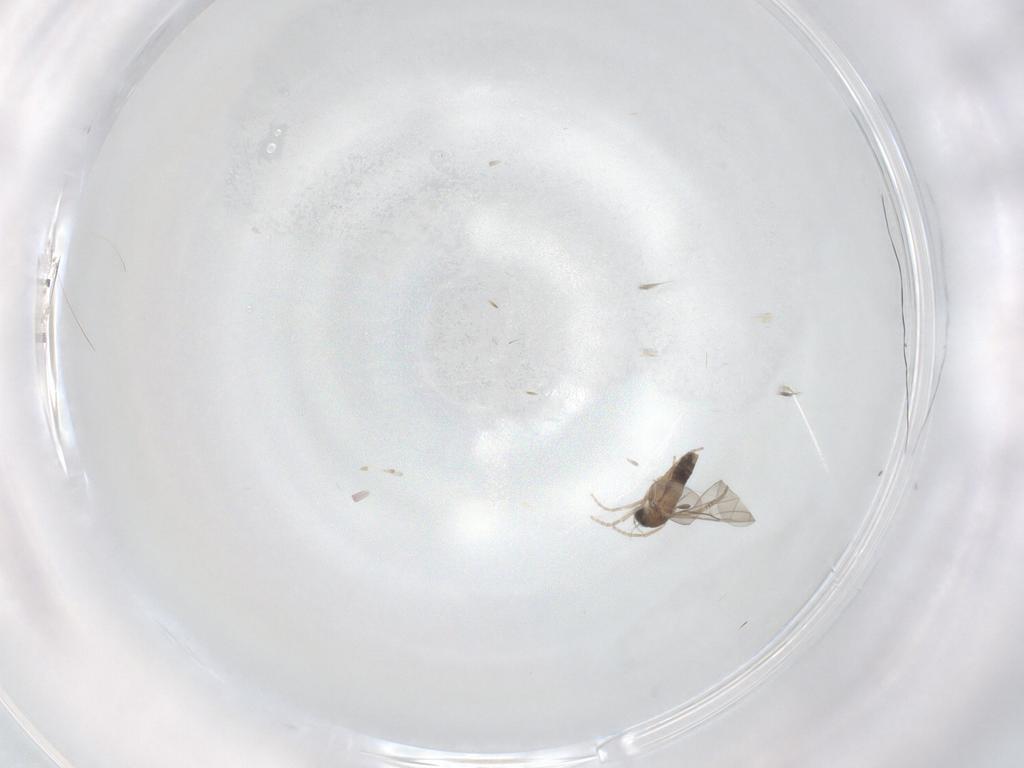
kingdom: Animalia
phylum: Arthropoda
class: Insecta
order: Diptera
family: Phoridae
